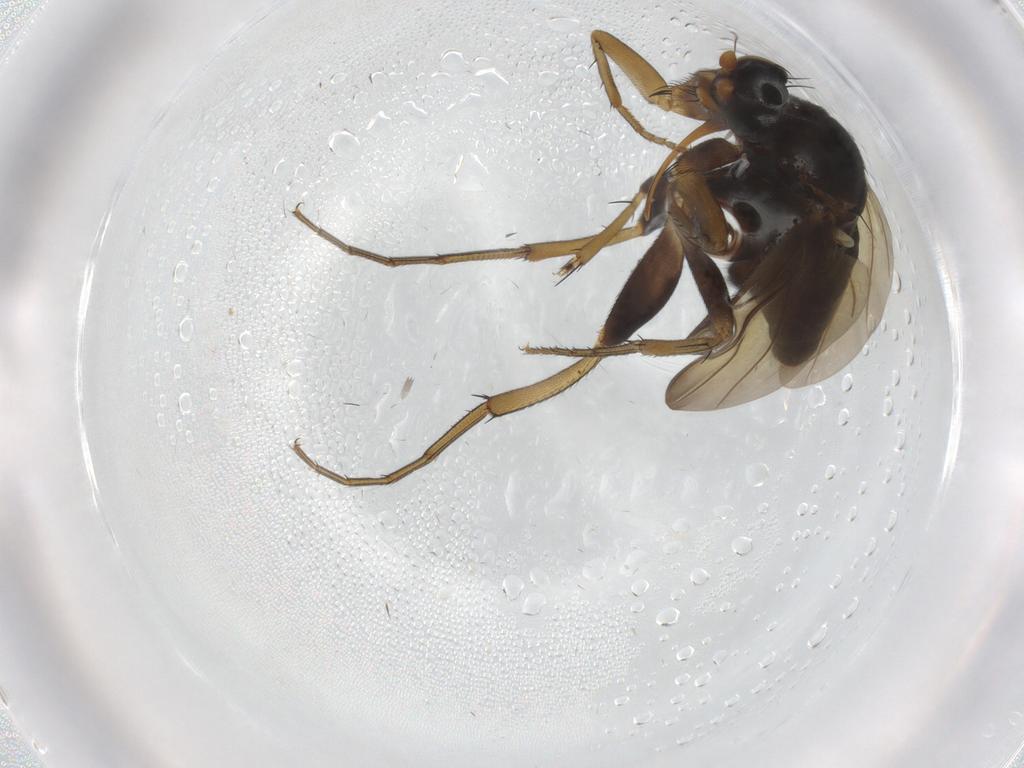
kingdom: Animalia
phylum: Arthropoda
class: Insecta
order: Diptera
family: Phoridae
